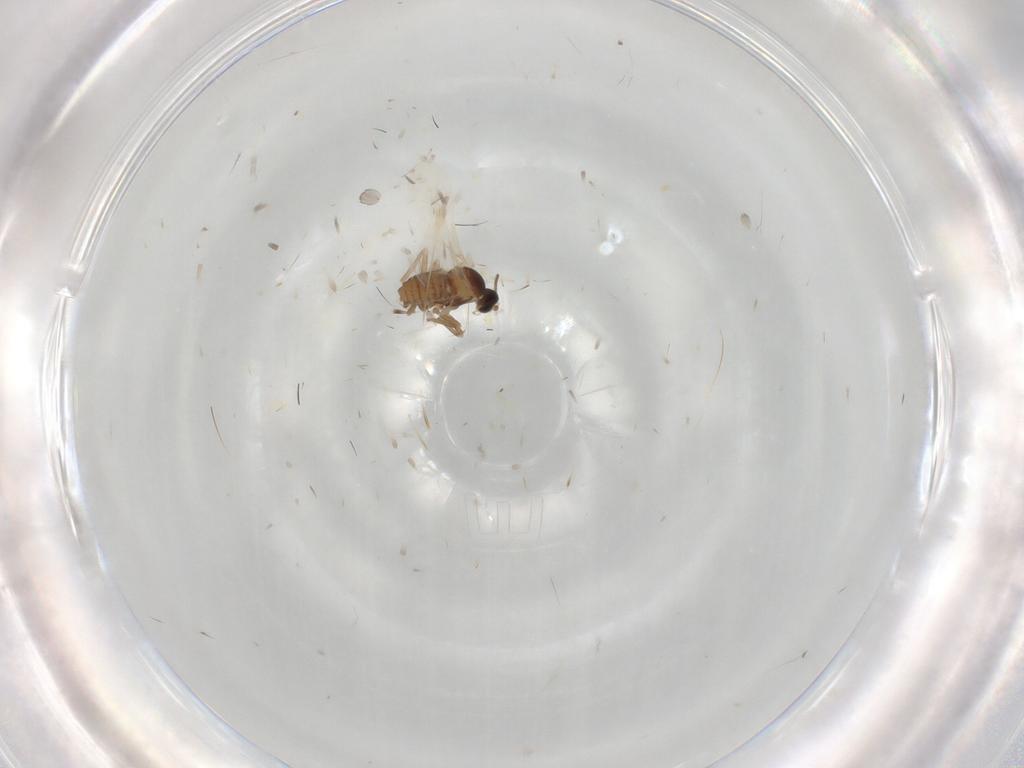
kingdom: Animalia
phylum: Arthropoda
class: Insecta
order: Diptera
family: Cecidomyiidae
